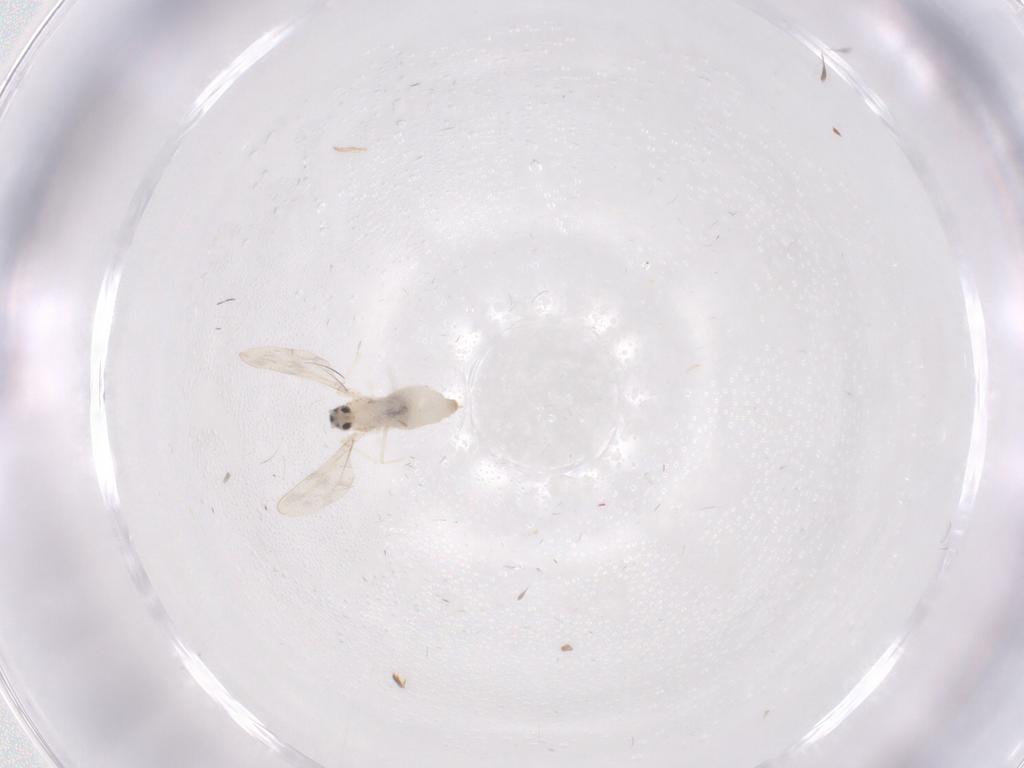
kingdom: Animalia
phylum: Arthropoda
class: Insecta
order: Diptera
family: Cecidomyiidae
